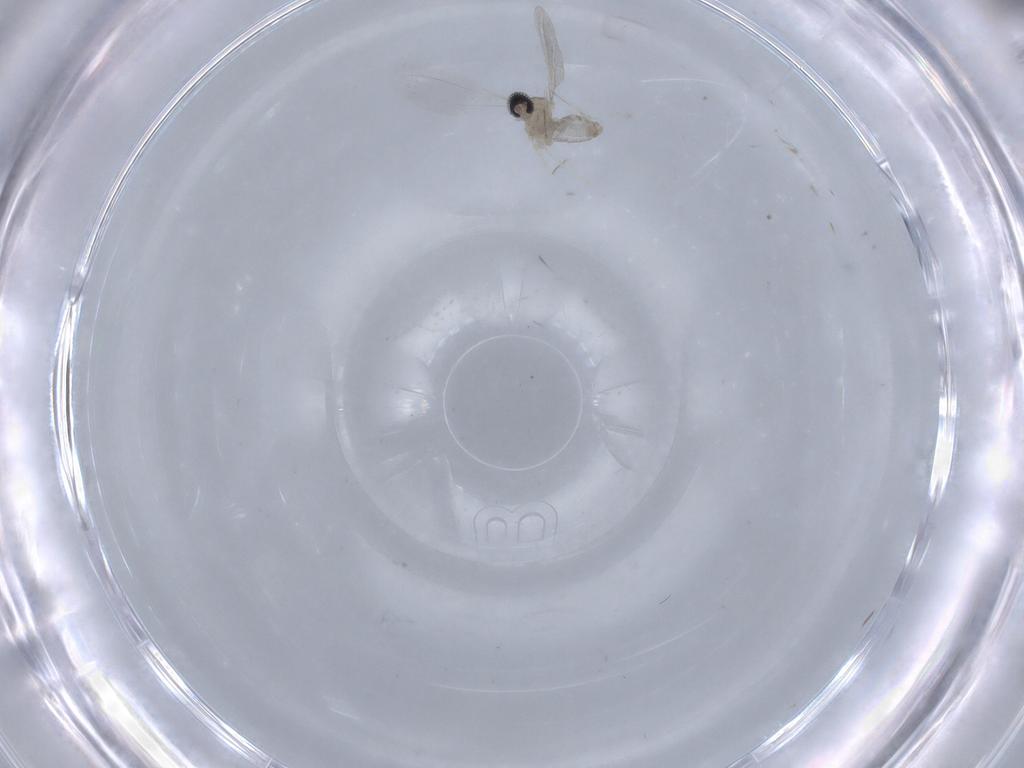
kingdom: Animalia
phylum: Arthropoda
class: Insecta
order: Diptera
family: Cecidomyiidae
